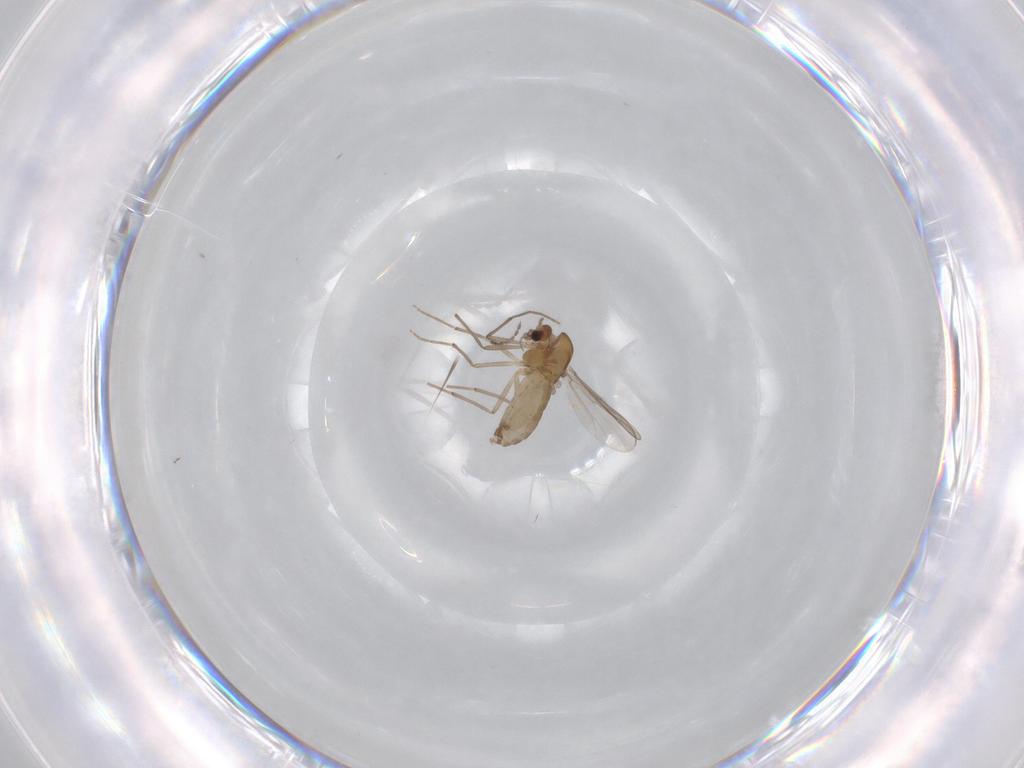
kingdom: Animalia
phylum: Arthropoda
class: Insecta
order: Diptera
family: Chironomidae
